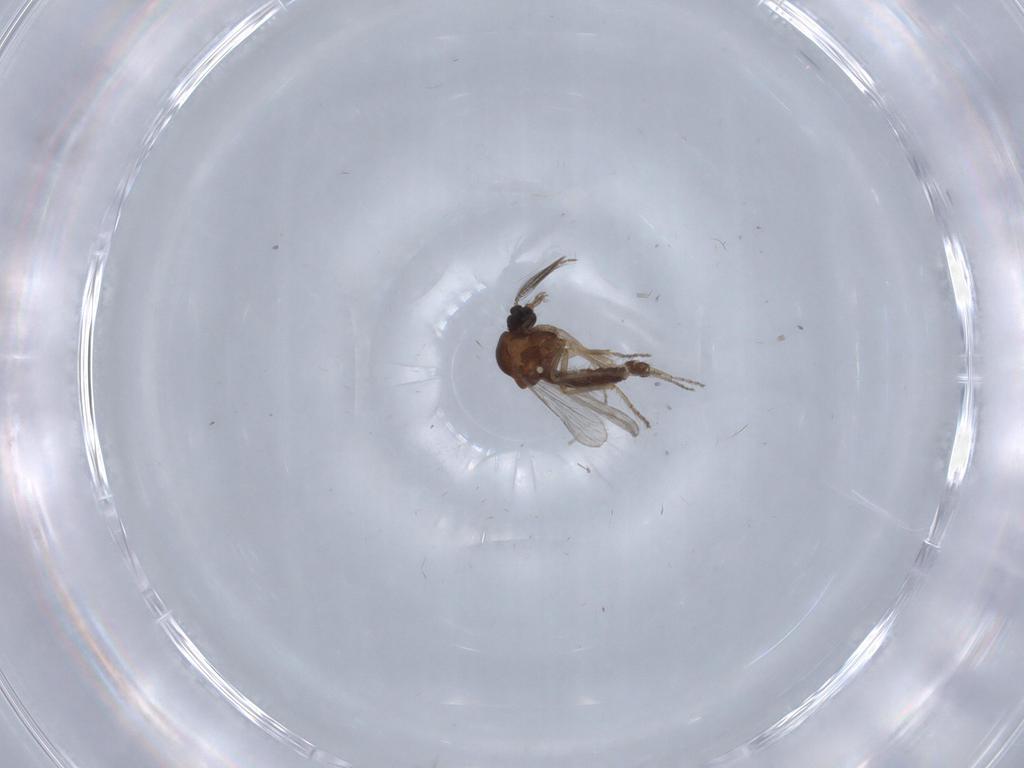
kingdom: Animalia
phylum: Arthropoda
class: Insecta
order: Diptera
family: Ceratopogonidae
